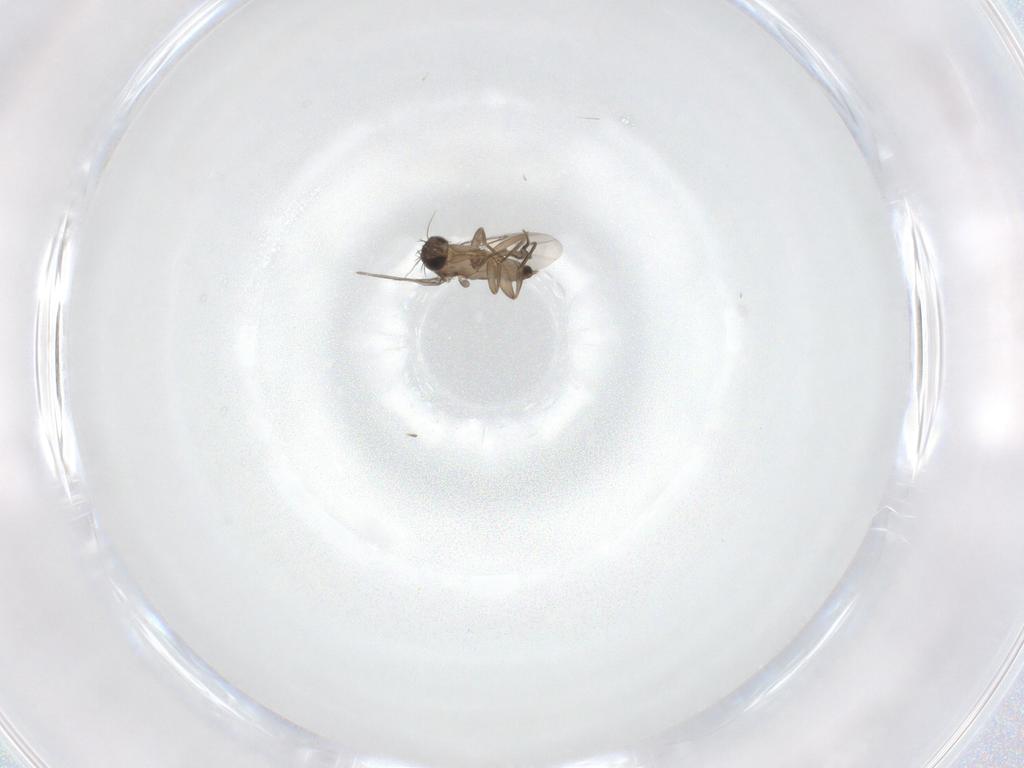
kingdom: Animalia
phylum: Arthropoda
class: Insecta
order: Diptera
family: Phoridae
